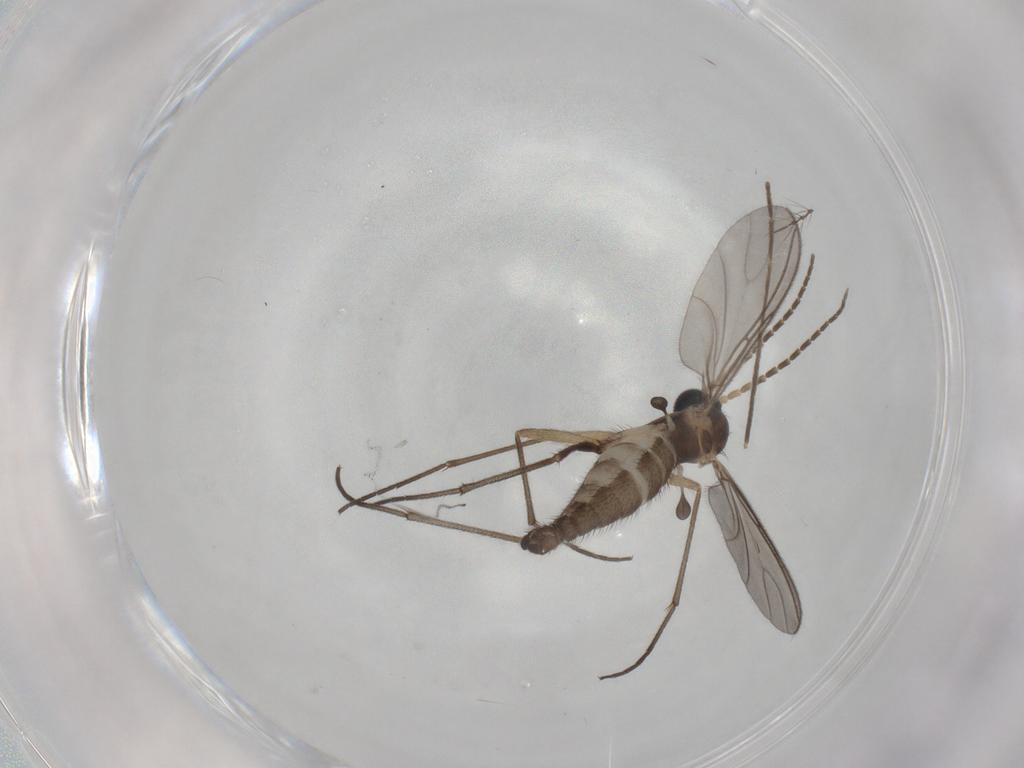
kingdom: Animalia
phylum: Arthropoda
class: Insecta
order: Diptera
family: Sciaridae
